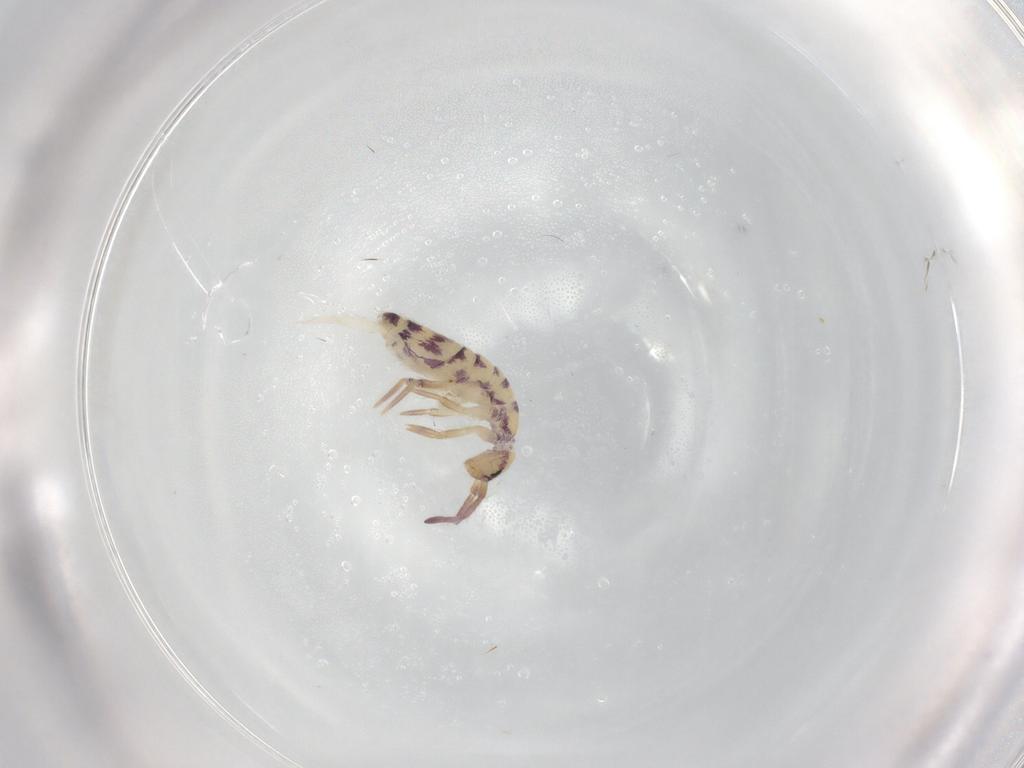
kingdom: Animalia
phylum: Arthropoda
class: Collembola
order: Entomobryomorpha
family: Entomobryidae
